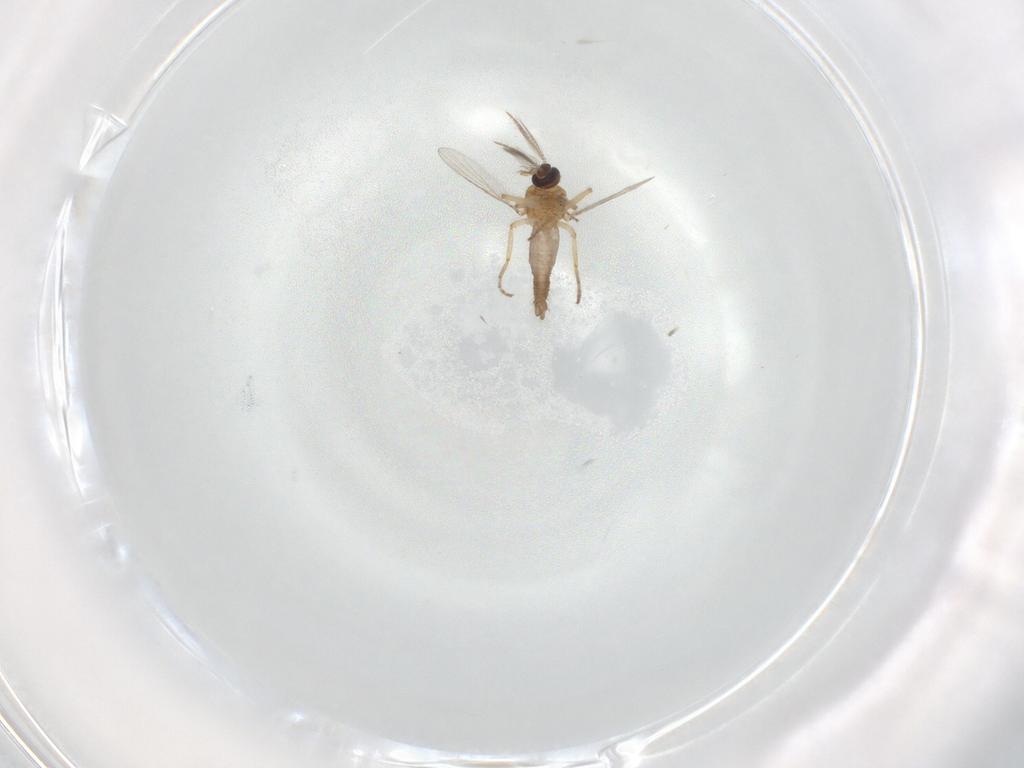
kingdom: Animalia
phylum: Arthropoda
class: Insecta
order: Diptera
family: Ceratopogonidae
